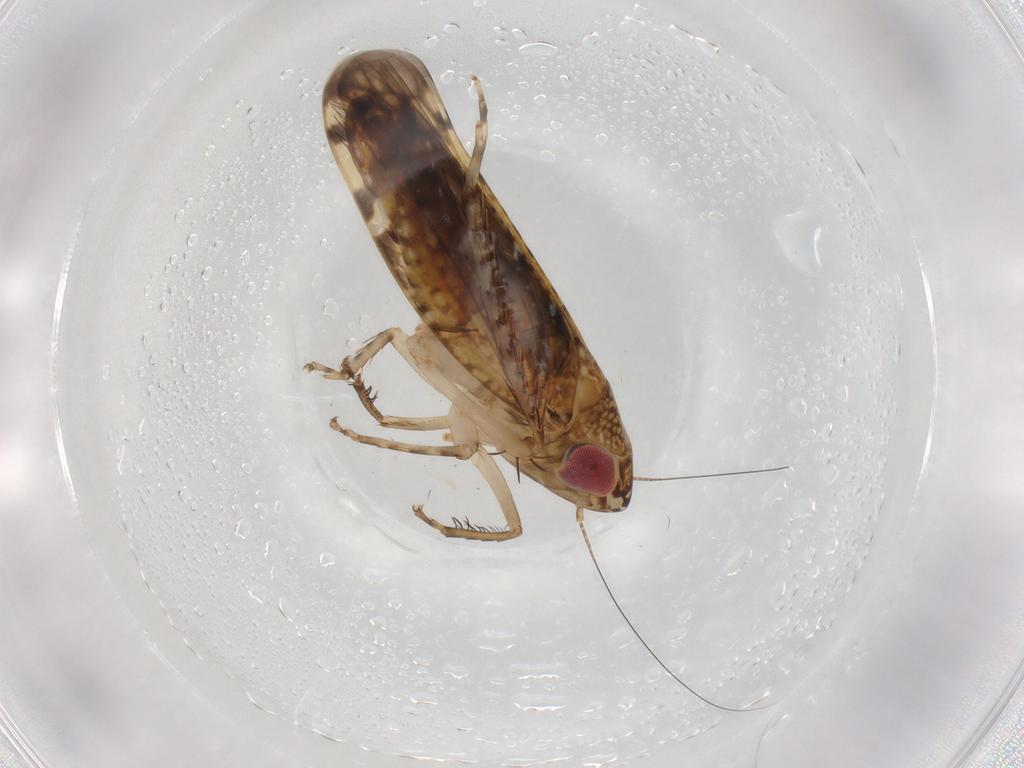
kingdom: Animalia
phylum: Arthropoda
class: Insecta
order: Hemiptera
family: Cicadellidae
